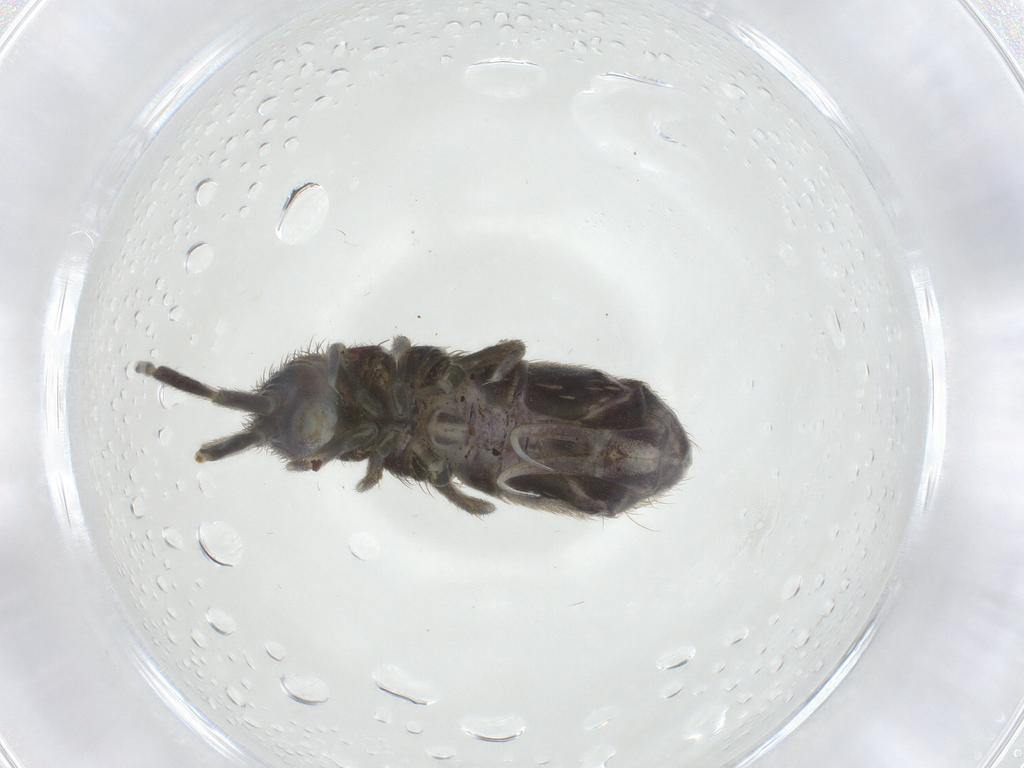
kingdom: Animalia
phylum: Arthropoda
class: Collembola
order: Entomobryomorpha
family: Isotomidae
